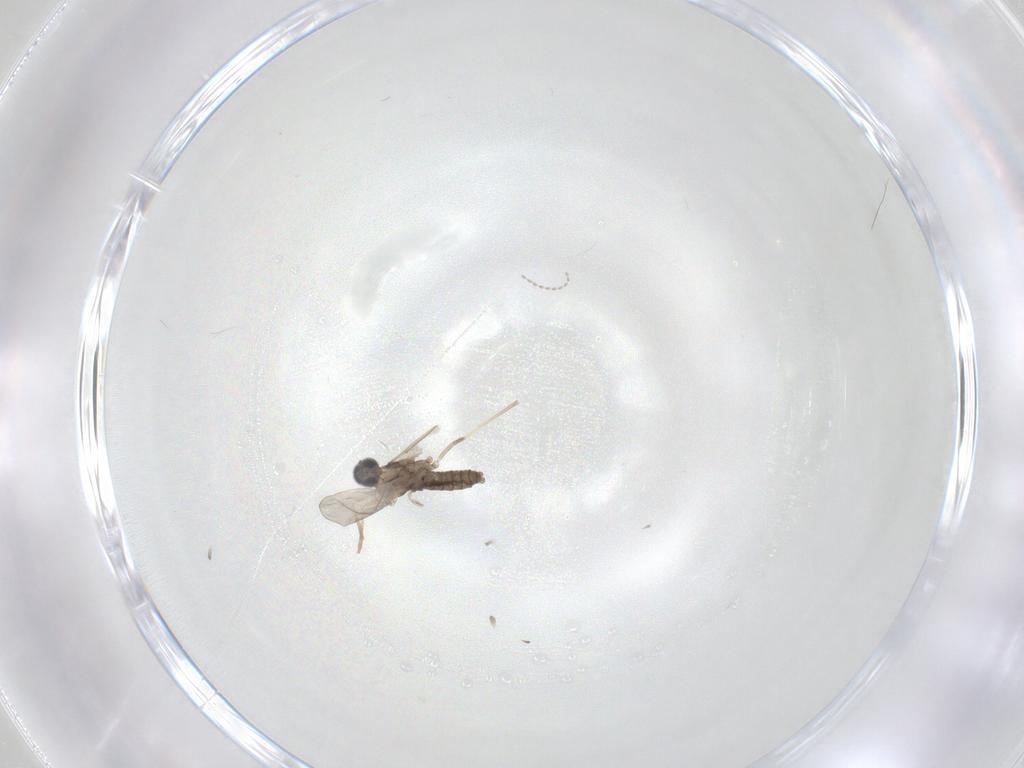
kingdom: Animalia
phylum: Arthropoda
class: Insecta
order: Diptera
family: Cecidomyiidae
